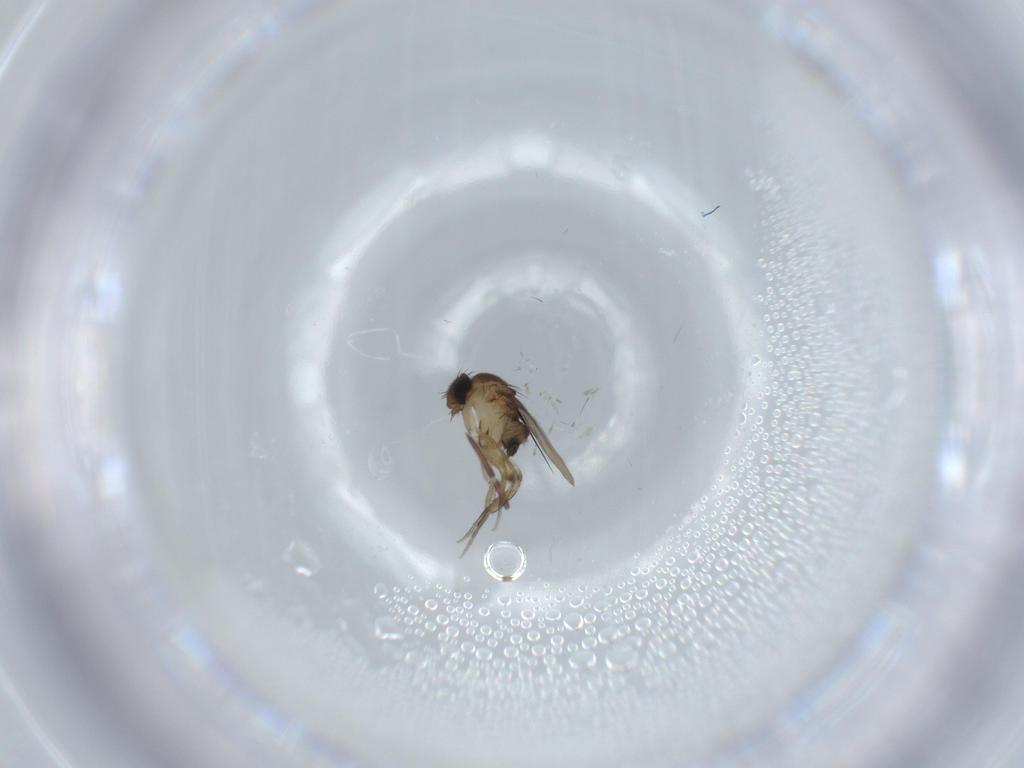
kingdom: Animalia
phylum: Arthropoda
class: Insecta
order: Diptera
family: Phoridae
